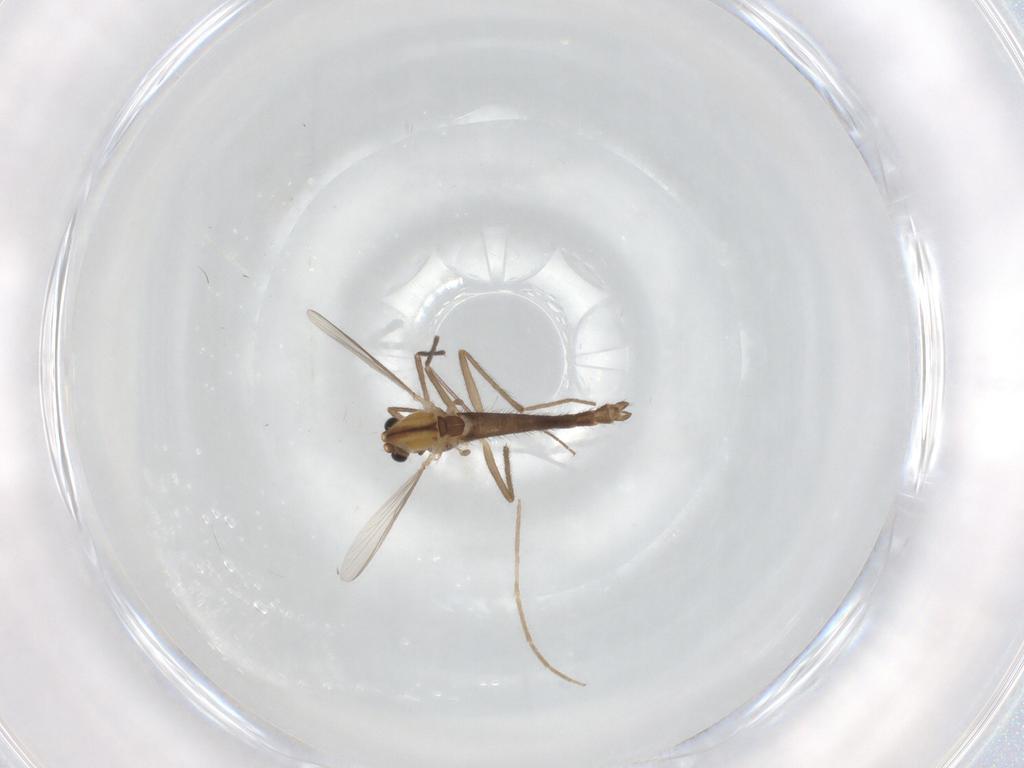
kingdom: Animalia
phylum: Arthropoda
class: Insecta
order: Diptera
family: Chironomidae
